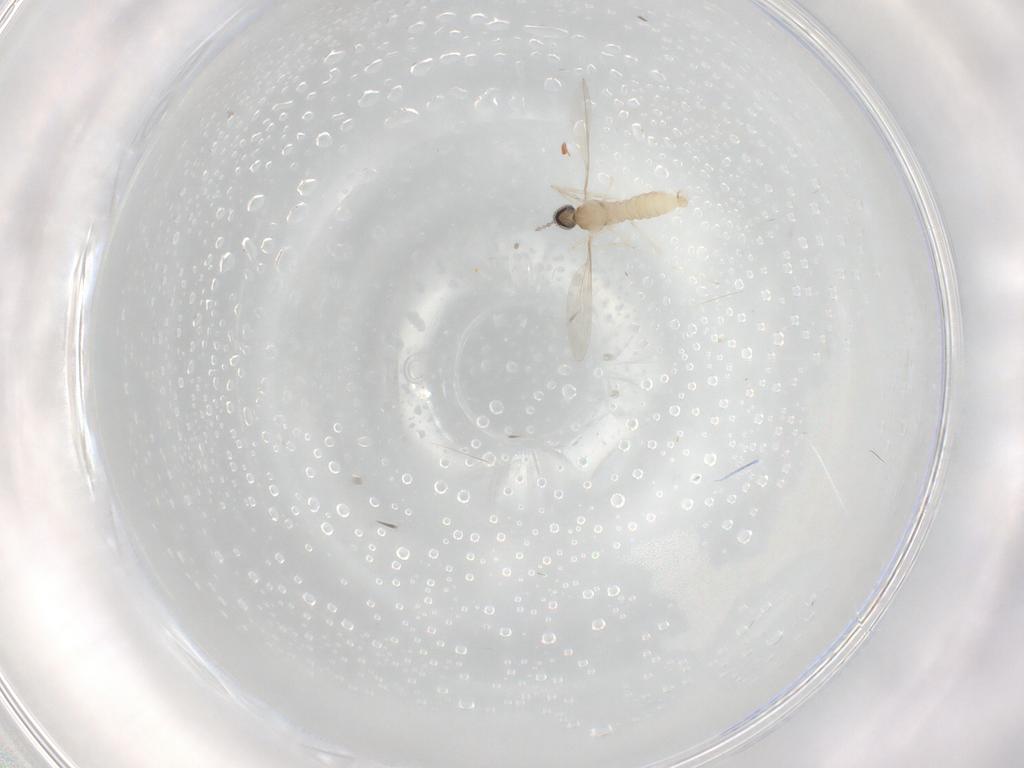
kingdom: Animalia
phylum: Arthropoda
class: Insecta
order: Diptera
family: Cecidomyiidae
